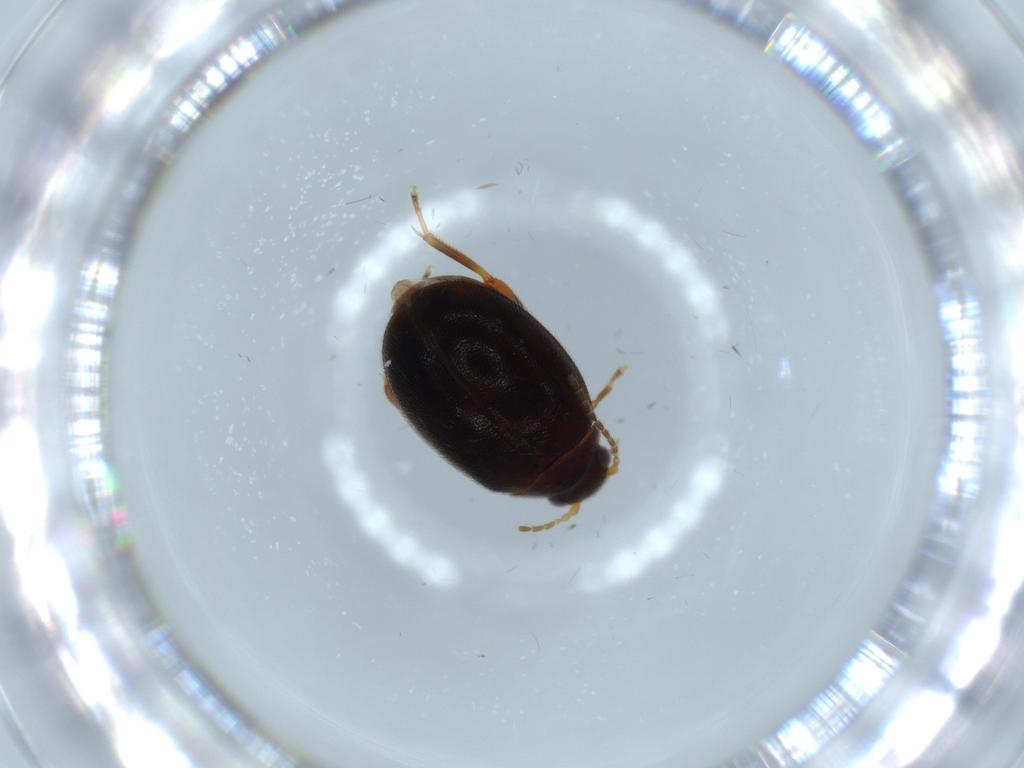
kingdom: Animalia
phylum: Arthropoda
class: Insecta
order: Coleoptera
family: Scirtidae
